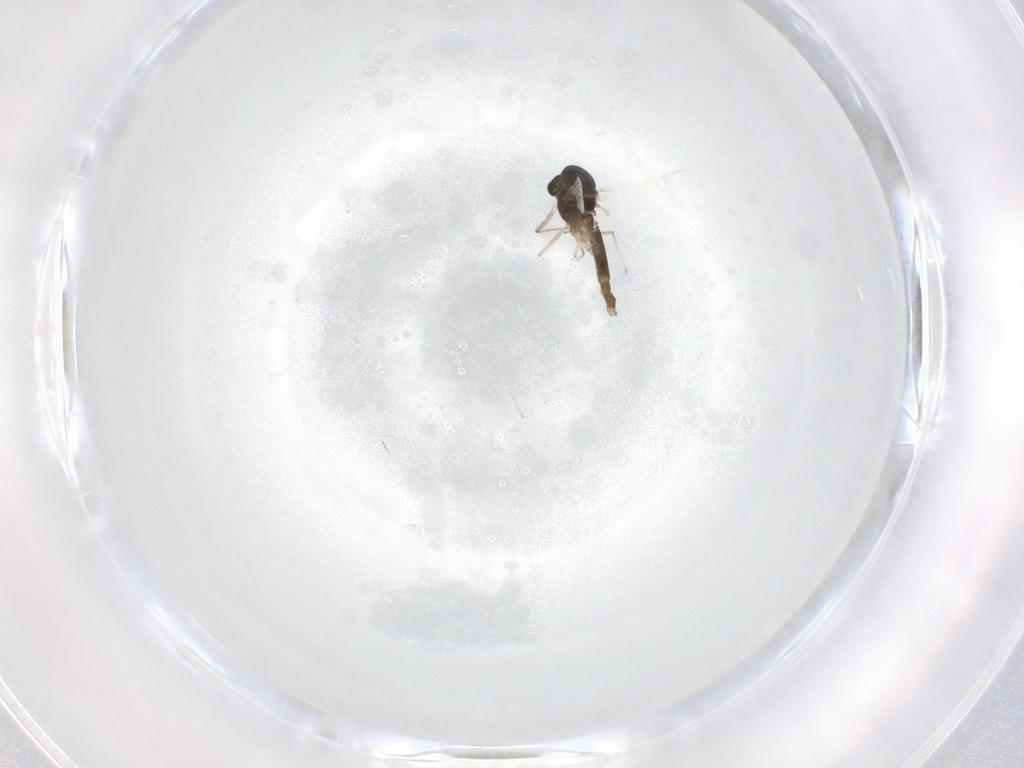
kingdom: Animalia
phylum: Arthropoda
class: Insecta
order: Diptera
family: Chironomidae
